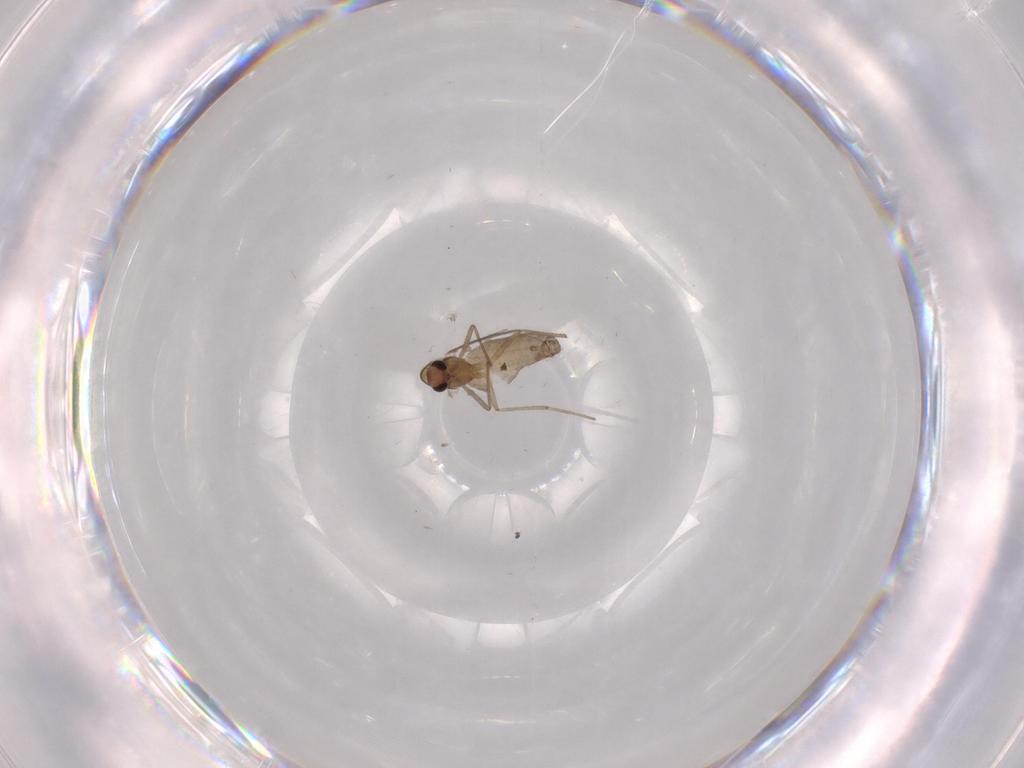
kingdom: Animalia
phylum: Arthropoda
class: Insecta
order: Diptera
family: Chironomidae
